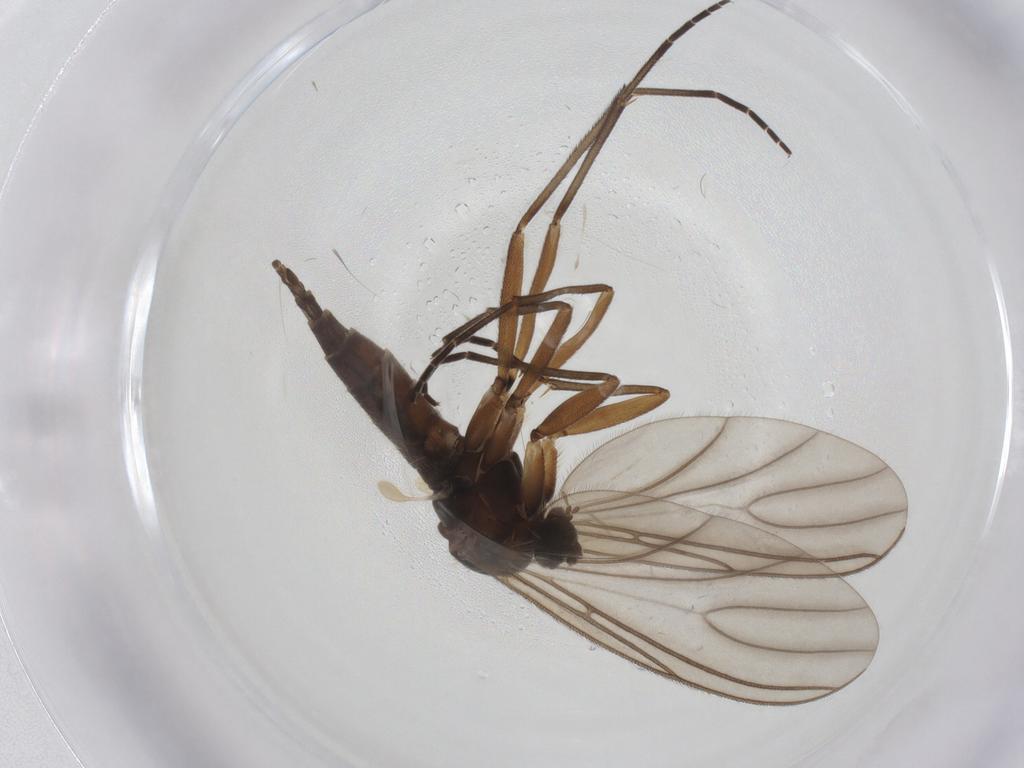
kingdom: Animalia
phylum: Arthropoda
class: Insecta
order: Diptera
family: Sciaridae
